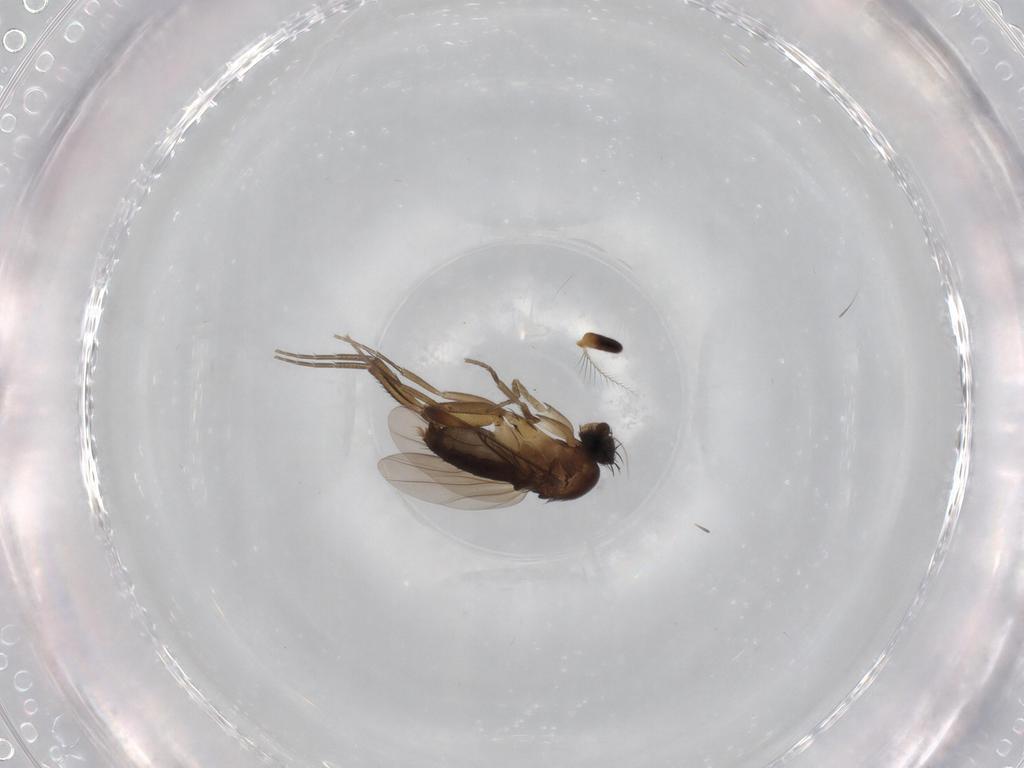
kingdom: Animalia
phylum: Arthropoda
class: Insecta
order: Diptera
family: Phoridae
